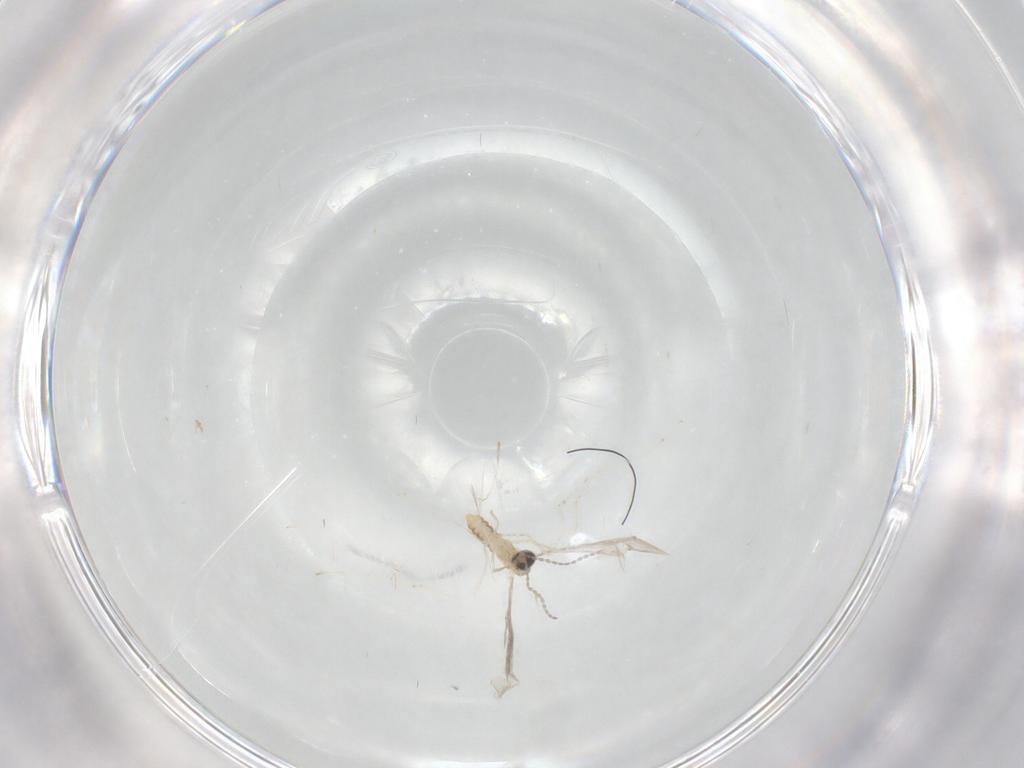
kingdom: Animalia
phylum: Arthropoda
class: Insecta
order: Diptera
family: Cecidomyiidae
